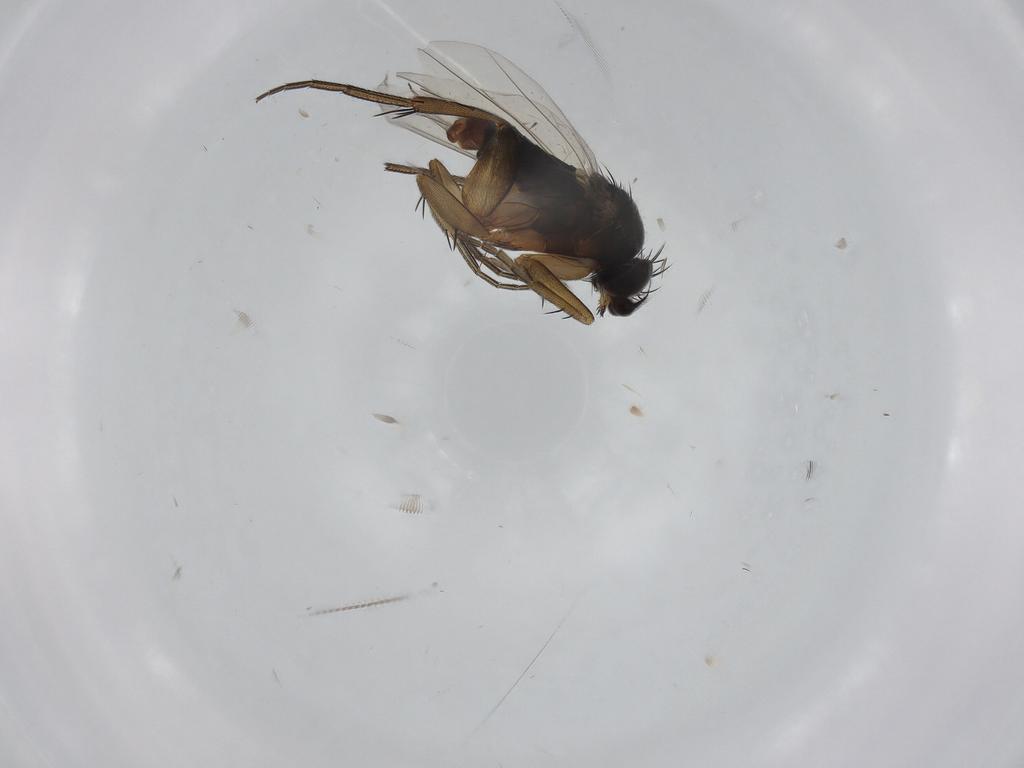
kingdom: Animalia
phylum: Arthropoda
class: Insecta
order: Diptera
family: Phoridae
